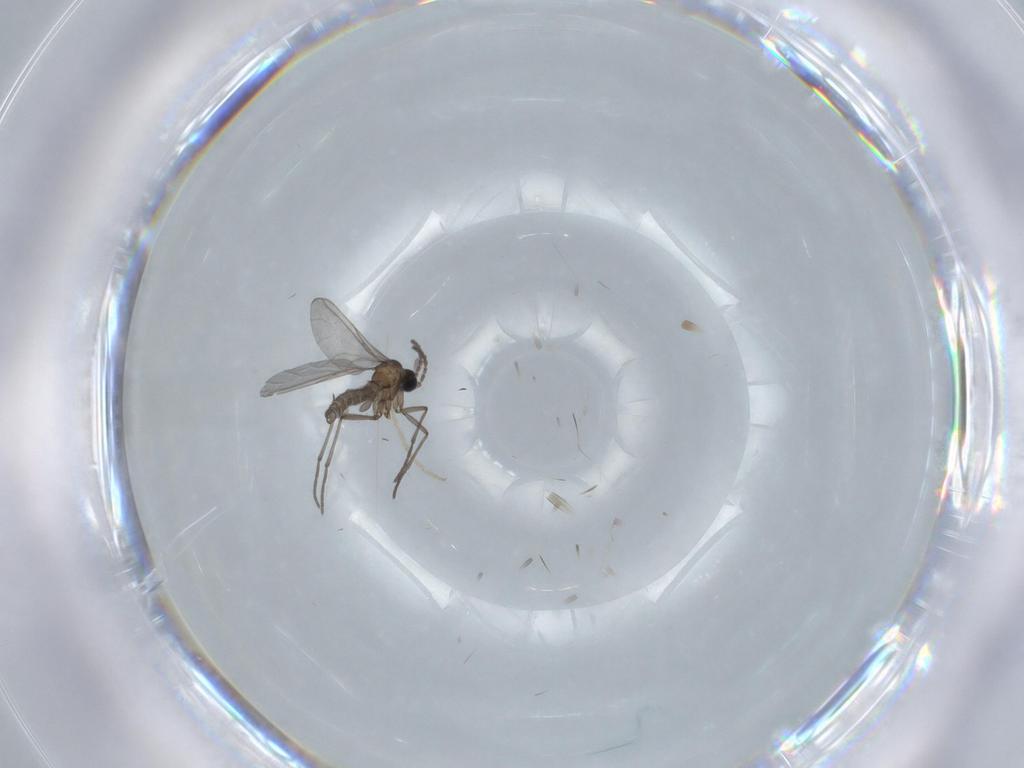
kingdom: Animalia
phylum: Arthropoda
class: Insecta
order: Diptera
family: Sciaridae
